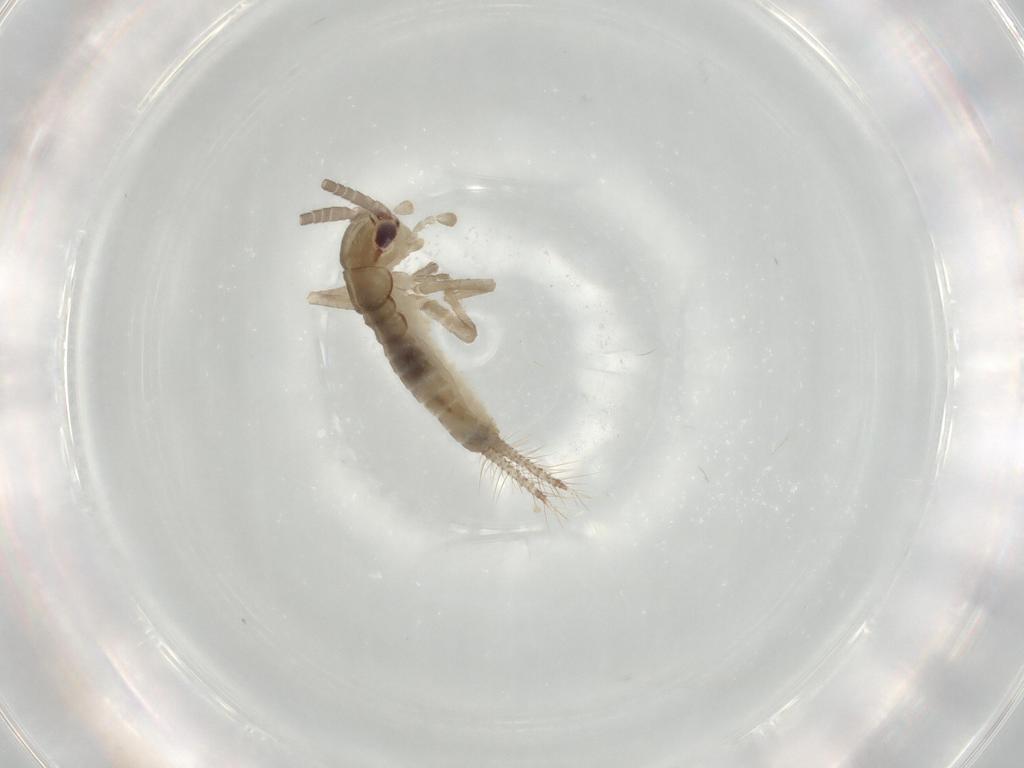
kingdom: Animalia
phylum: Arthropoda
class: Insecta
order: Orthoptera
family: Gryllidae
